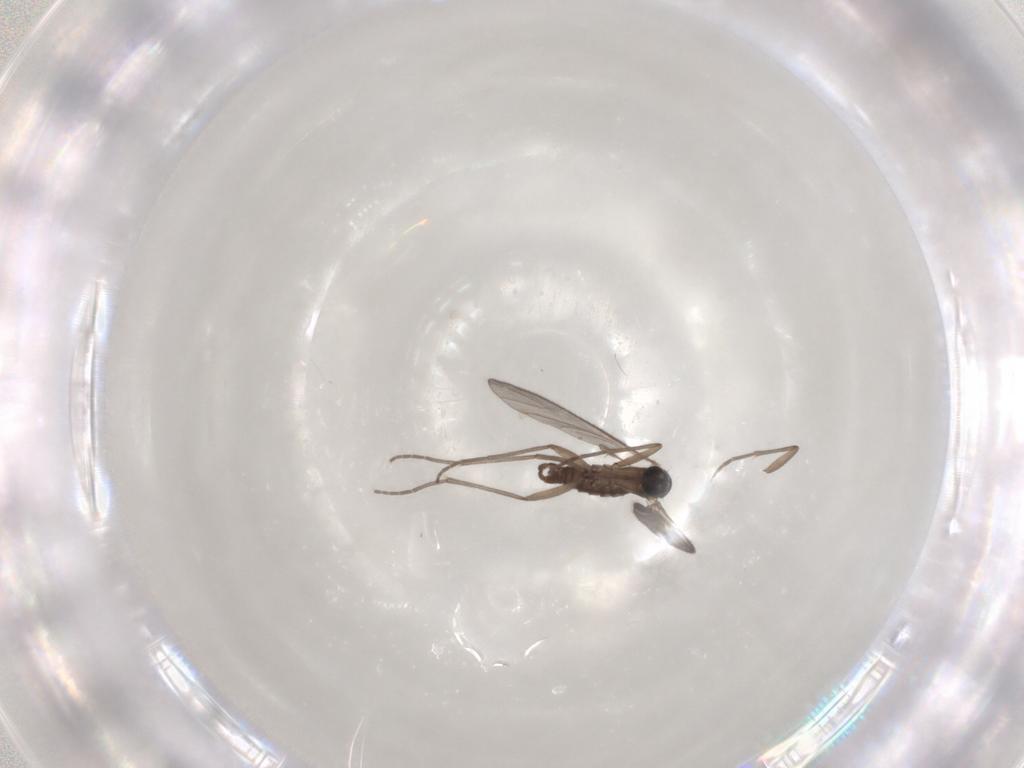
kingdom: Animalia
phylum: Arthropoda
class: Insecta
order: Diptera
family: Sciaridae
